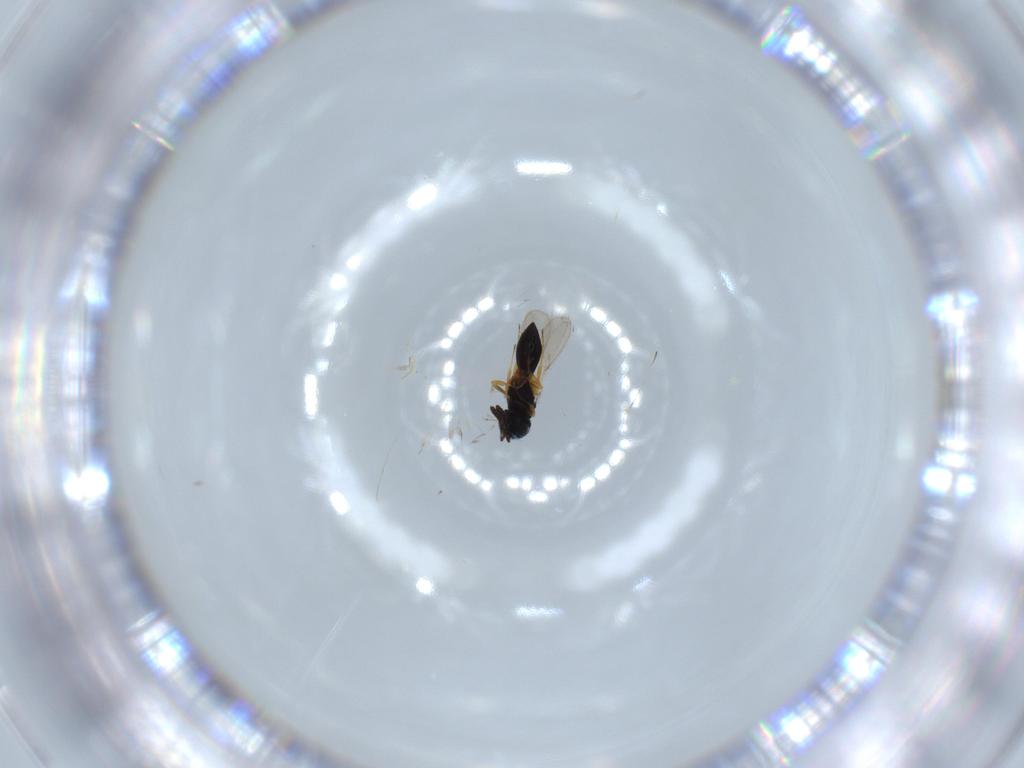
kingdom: Animalia
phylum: Arthropoda
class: Insecta
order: Hymenoptera
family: Scelionidae
